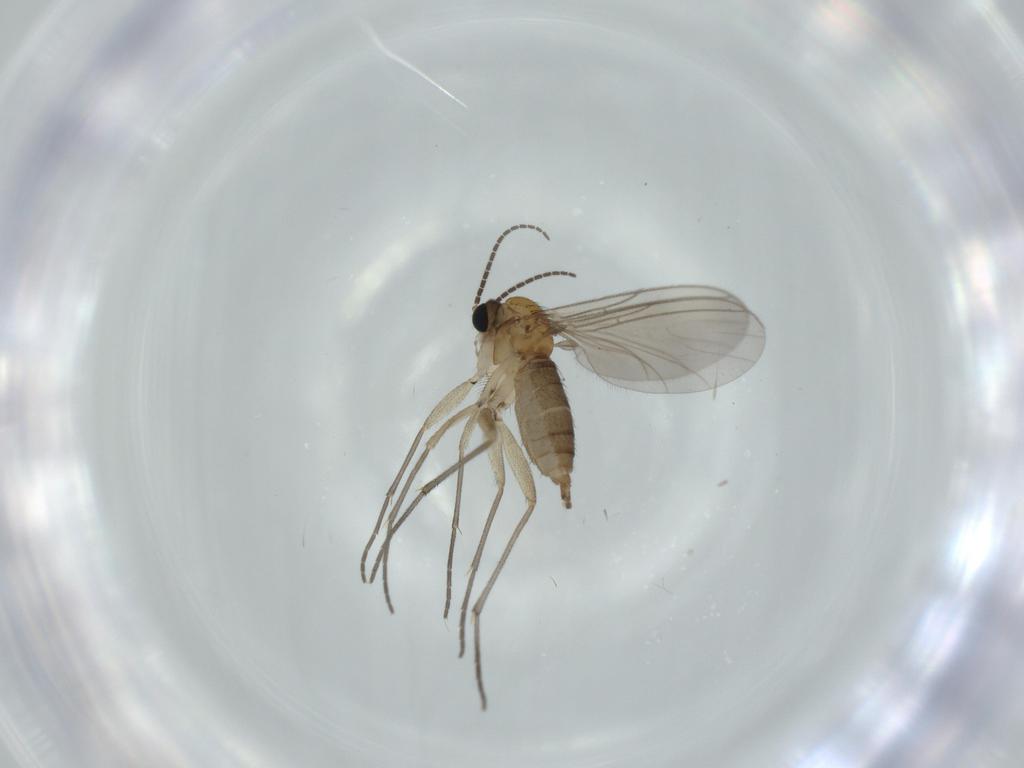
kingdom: Animalia
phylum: Arthropoda
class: Insecta
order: Diptera
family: Sciaridae
